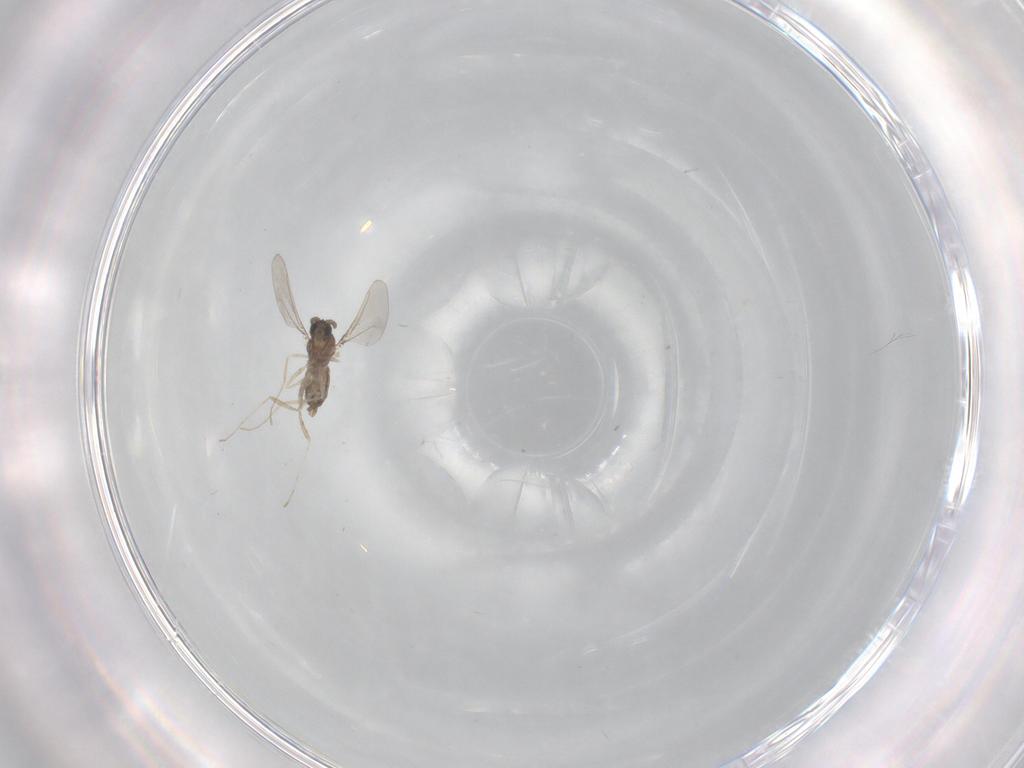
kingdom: Animalia
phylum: Arthropoda
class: Insecta
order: Diptera
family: Cecidomyiidae
